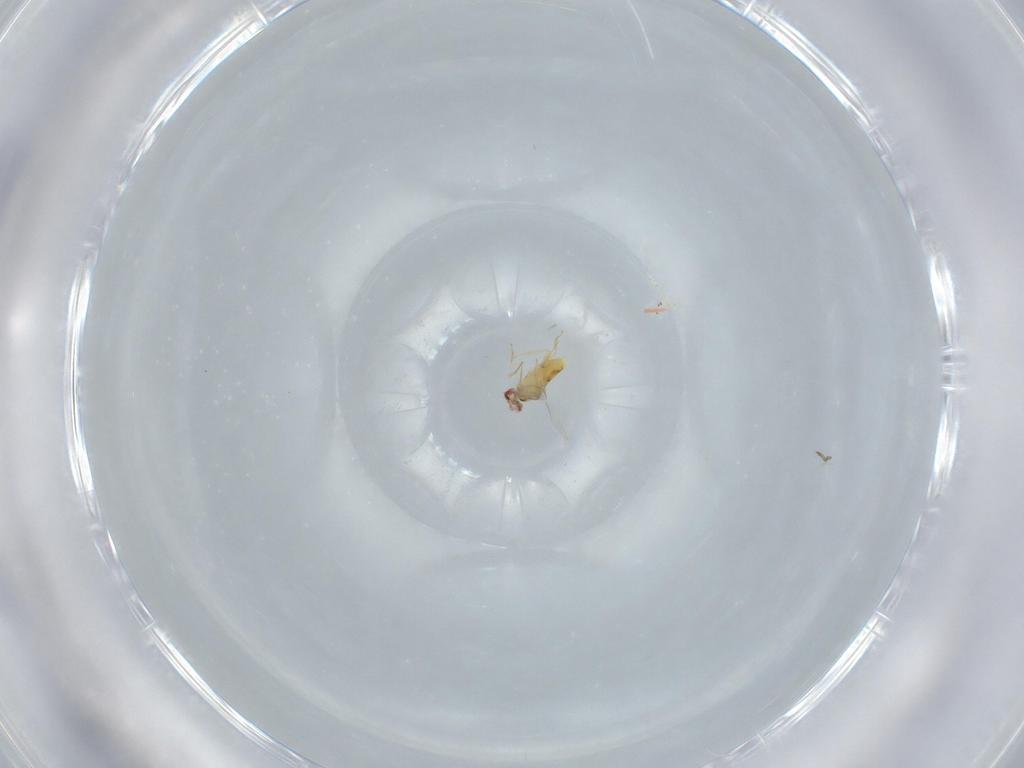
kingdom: Animalia
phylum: Arthropoda
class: Insecta
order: Hymenoptera
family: Aphelinidae
